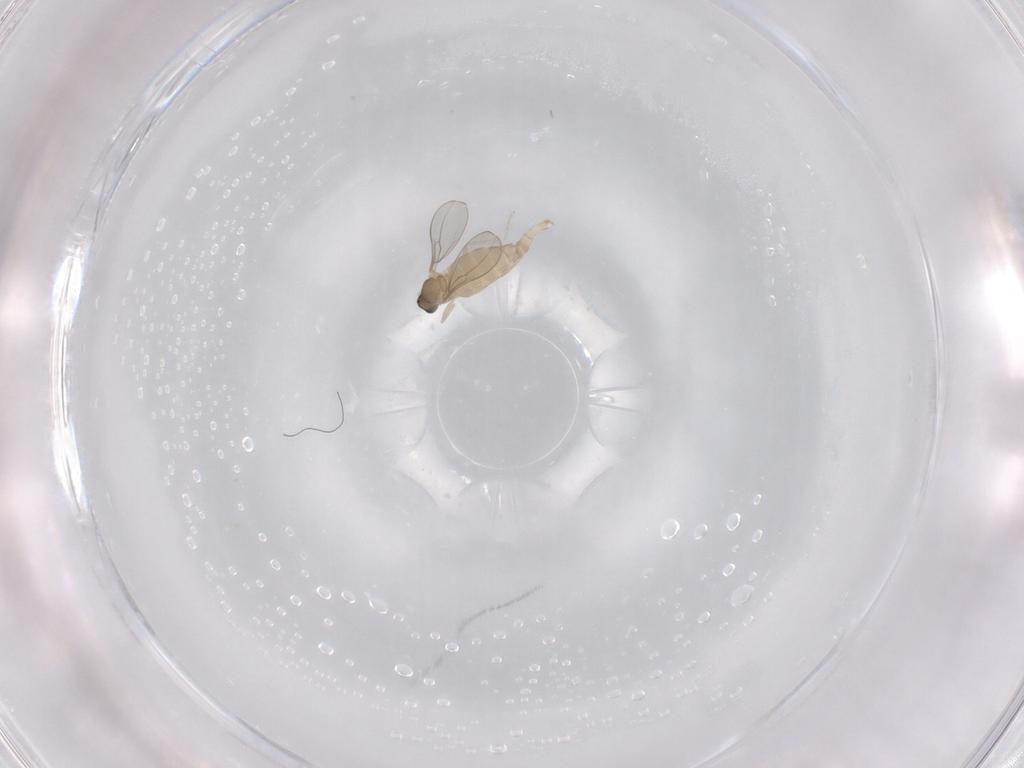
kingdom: Animalia
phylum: Arthropoda
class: Insecta
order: Diptera
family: Cecidomyiidae
